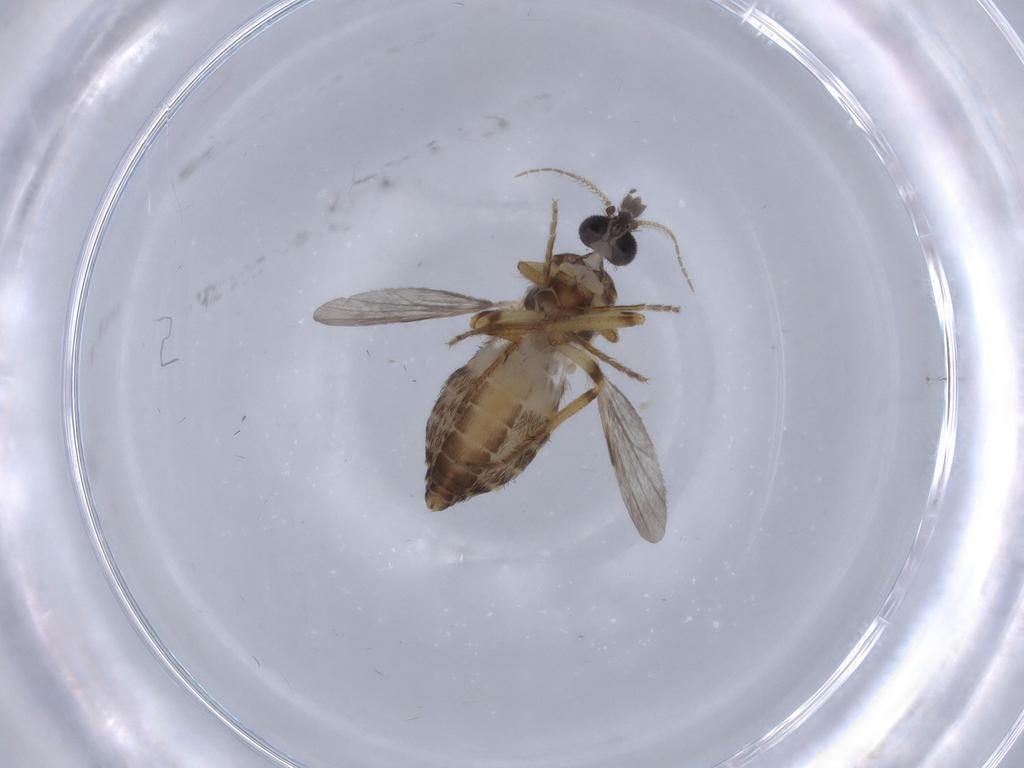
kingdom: Animalia
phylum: Arthropoda
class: Insecta
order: Diptera
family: Ceratopogonidae
